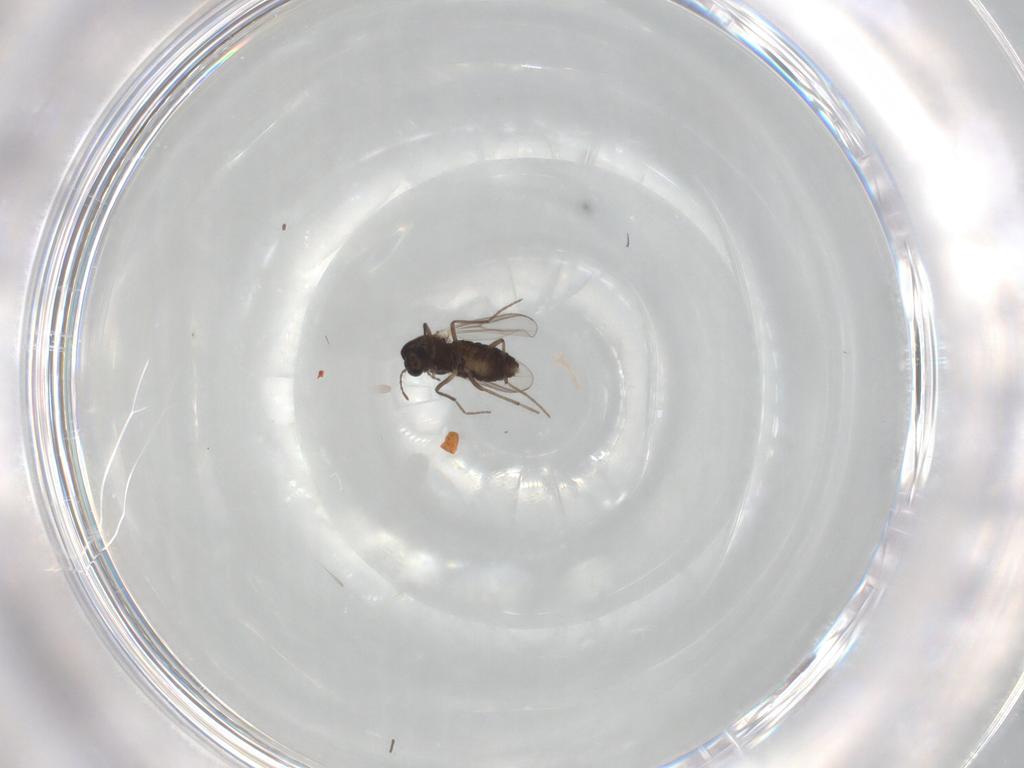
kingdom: Animalia
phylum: Arthropoda
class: Insecta
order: Diptera
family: Chironomidae
